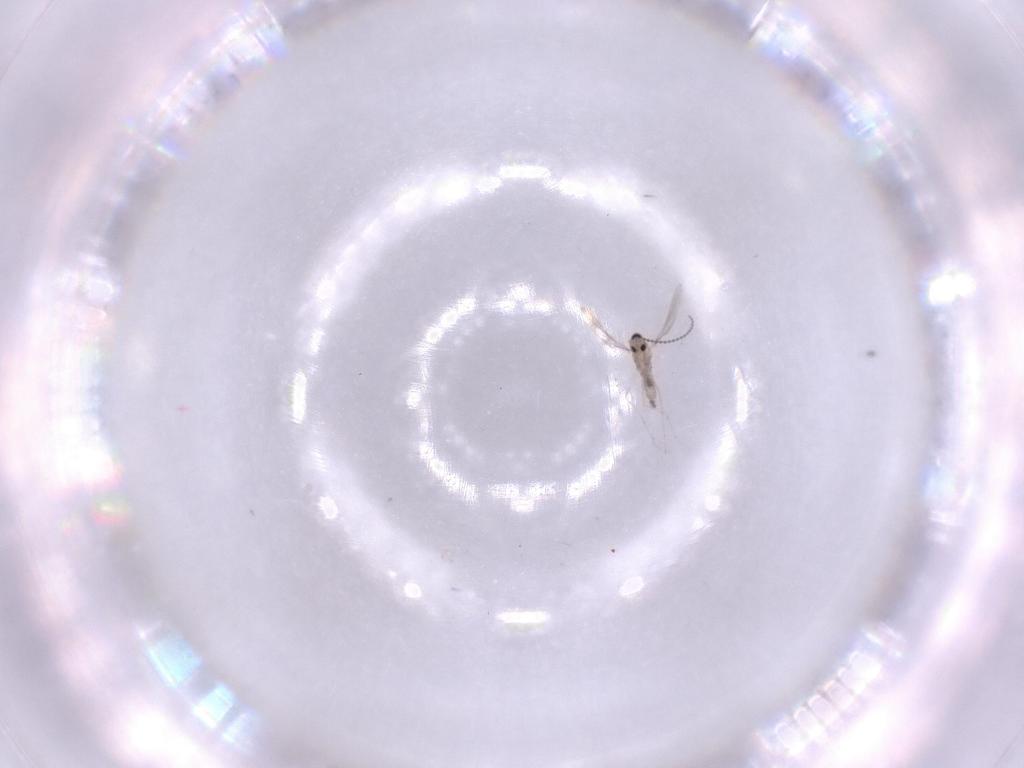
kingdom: Animalia
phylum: Arthropoda
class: Insecta
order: Diptera
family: Cecidomyiidae
